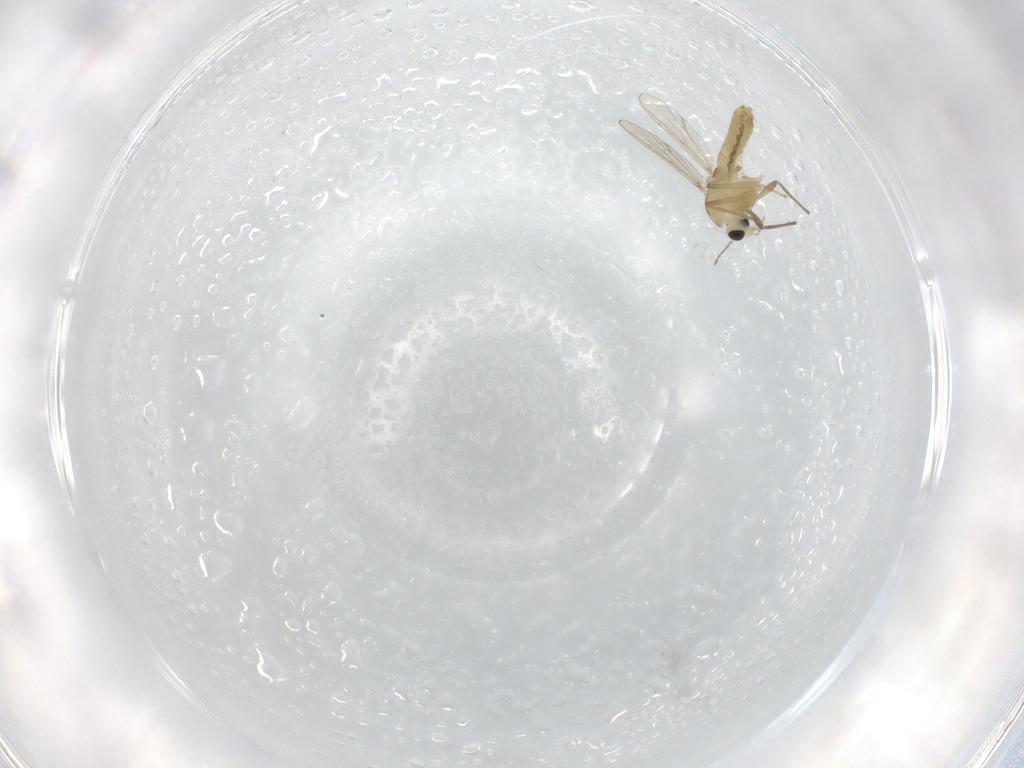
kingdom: Animalia
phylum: Arthropoda
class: Insecta
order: Diptera
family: Chironomidae
